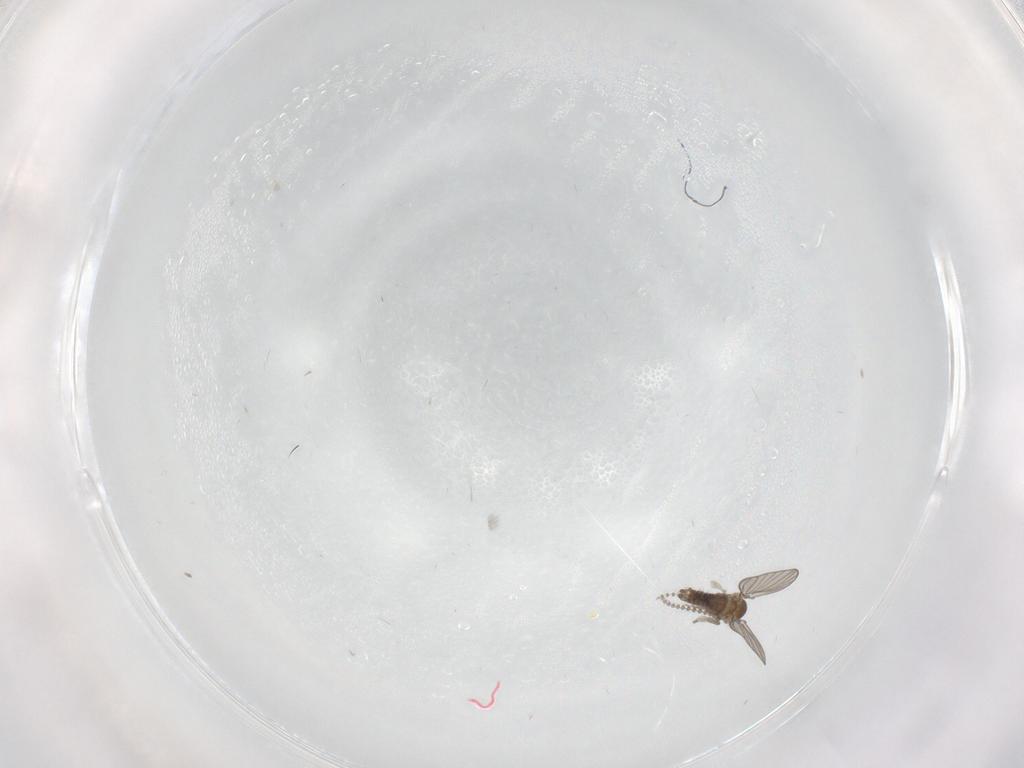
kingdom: Animalia
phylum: Arthropoda
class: Insecta
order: Diptera
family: Psychodidae
